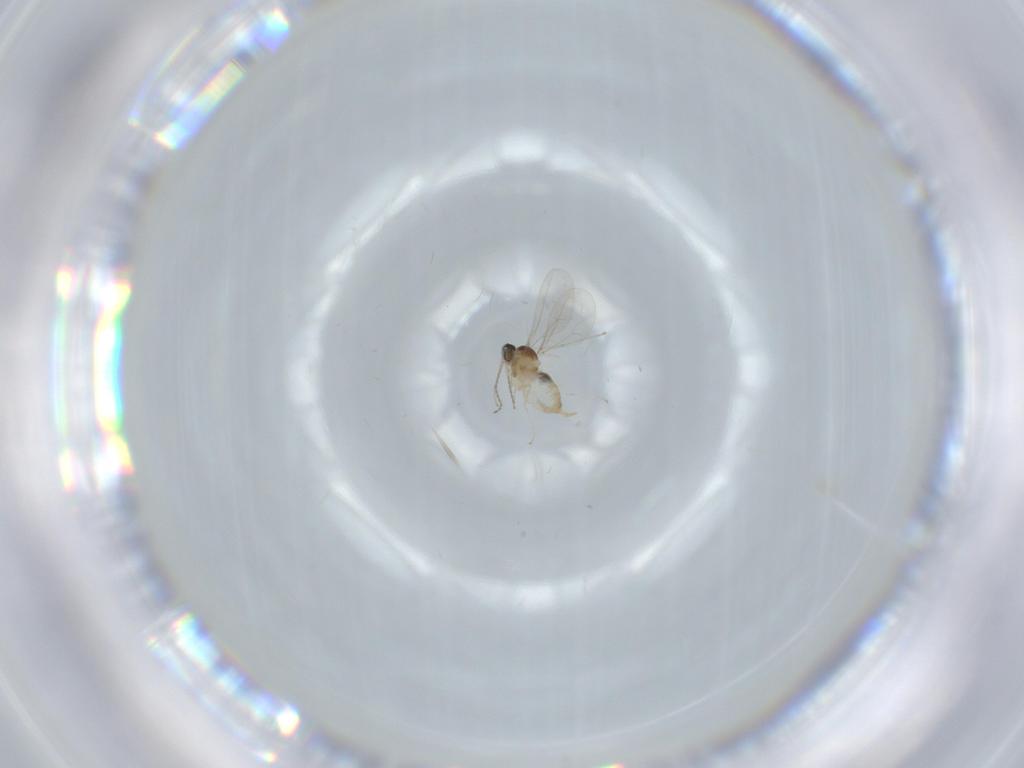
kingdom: Animalia
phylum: Arthropoda
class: Insecta
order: Diptera
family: Cecidomyiidae
